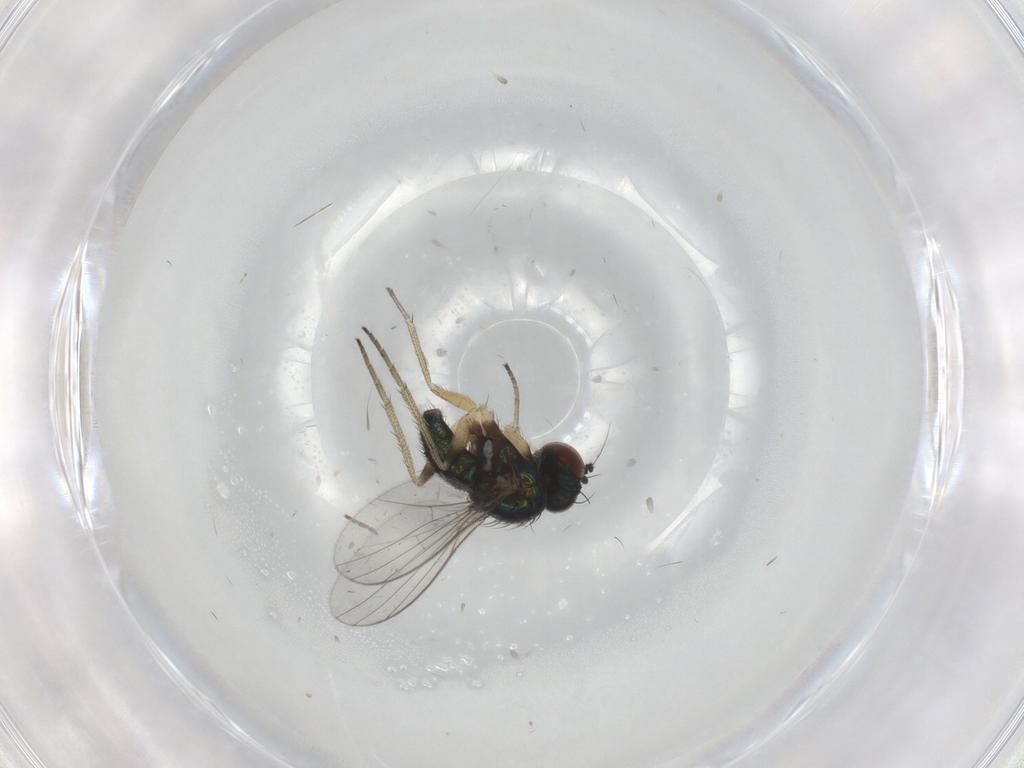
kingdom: Animalia
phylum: Arthropoda
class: Insecta
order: Diptera
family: Dolichopodidae
